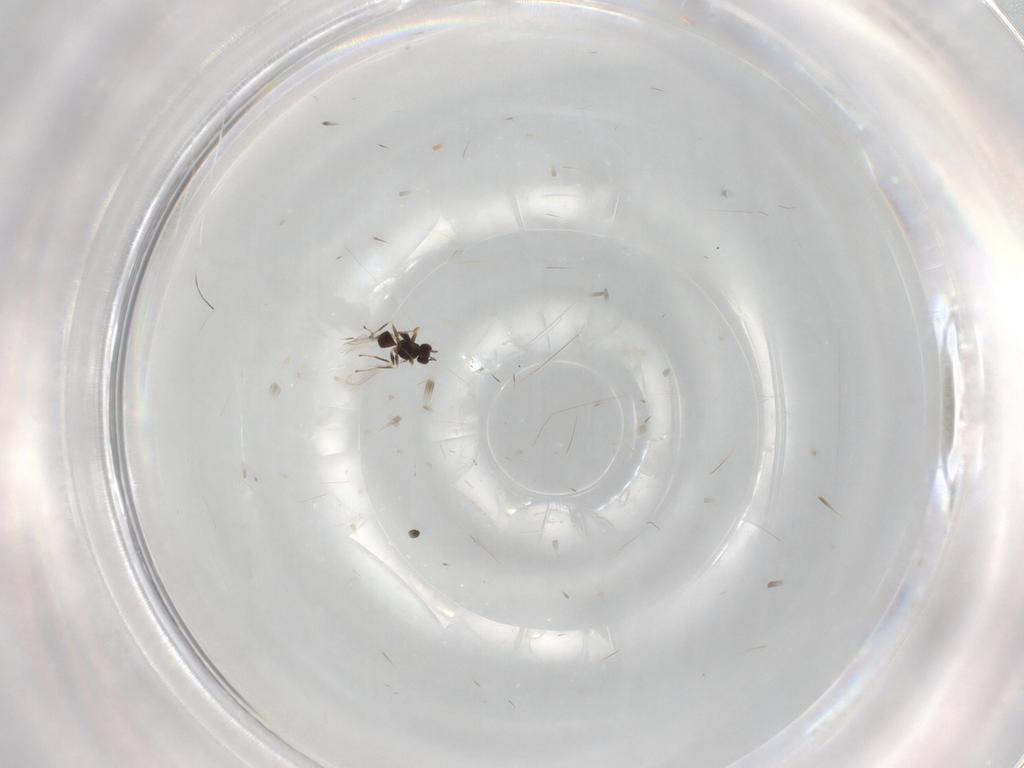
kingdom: Animalia
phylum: Arthropoda
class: Insecta
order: Hymenoptera
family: Mymaridae
